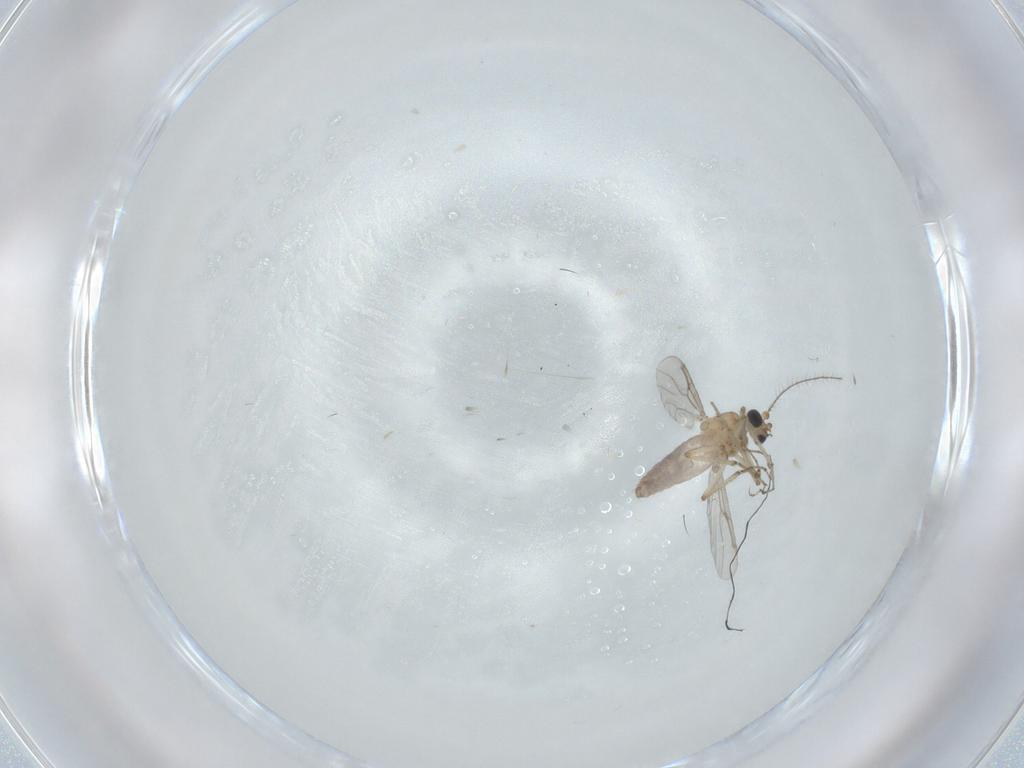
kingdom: Animalia
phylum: Arthropoda
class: Insecta
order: Diptera
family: Ceratopogonidae
